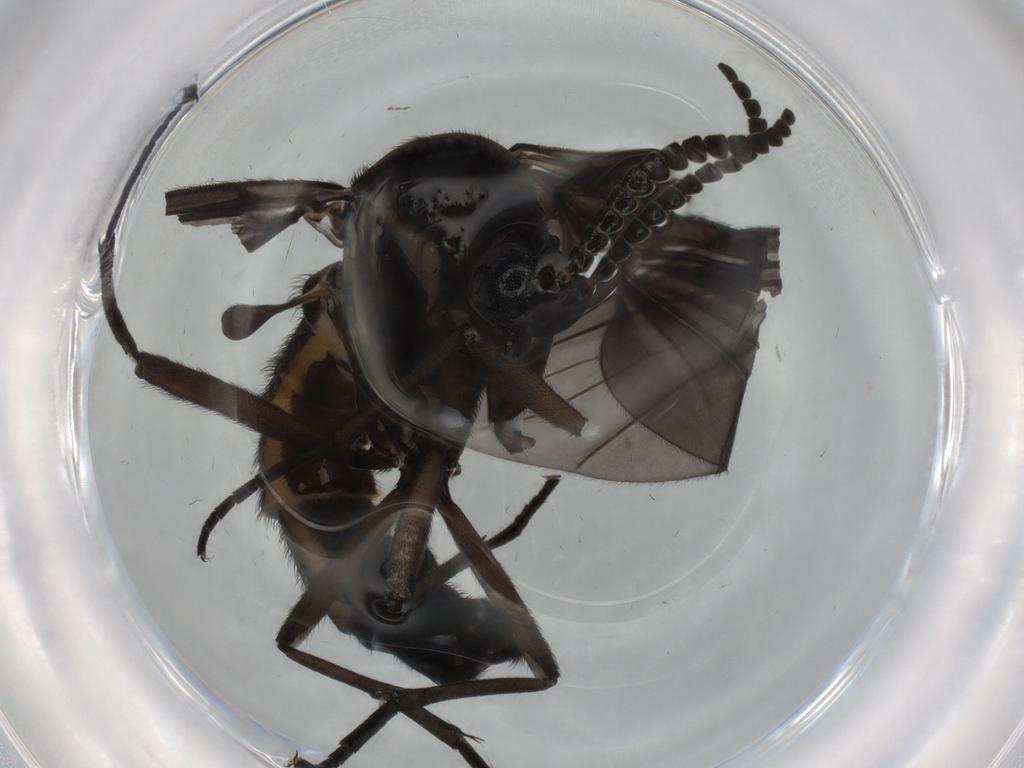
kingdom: Animalia
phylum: Arthropoda
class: Insecta
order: Diptera
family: Sciaridae
